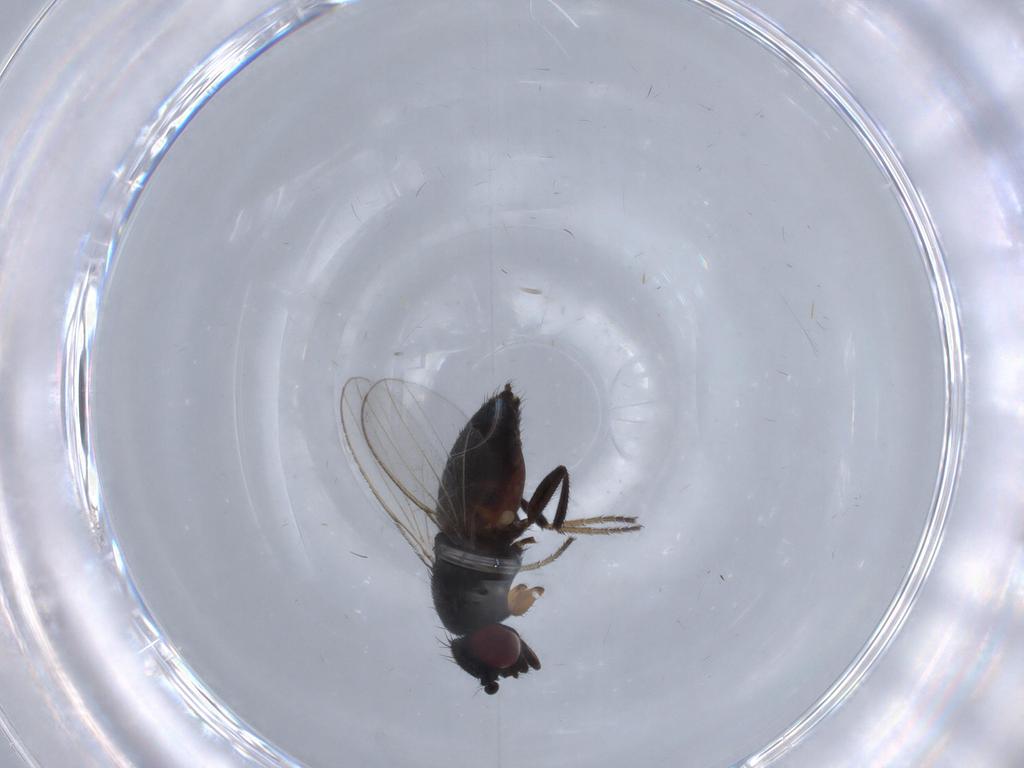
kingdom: Animalia
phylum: Arthropoda
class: Insecta
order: Diptera
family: Milichiidae
